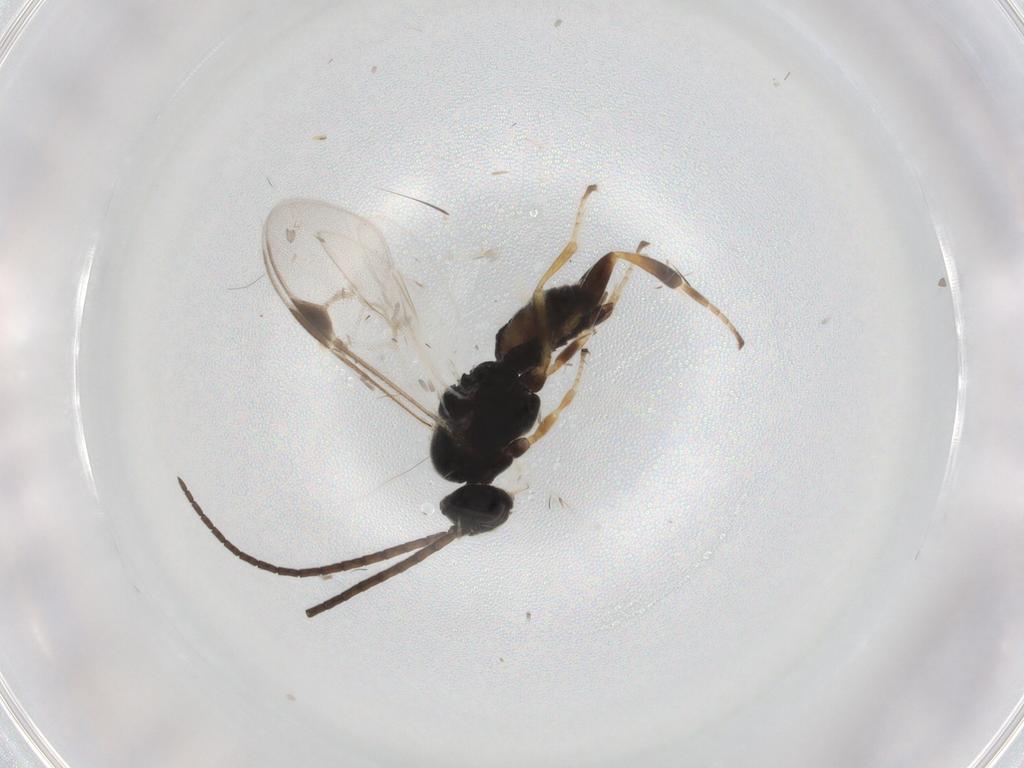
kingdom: Animalia
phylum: Arthropoda
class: Insecta
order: Hymenoptera
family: Braconidae
